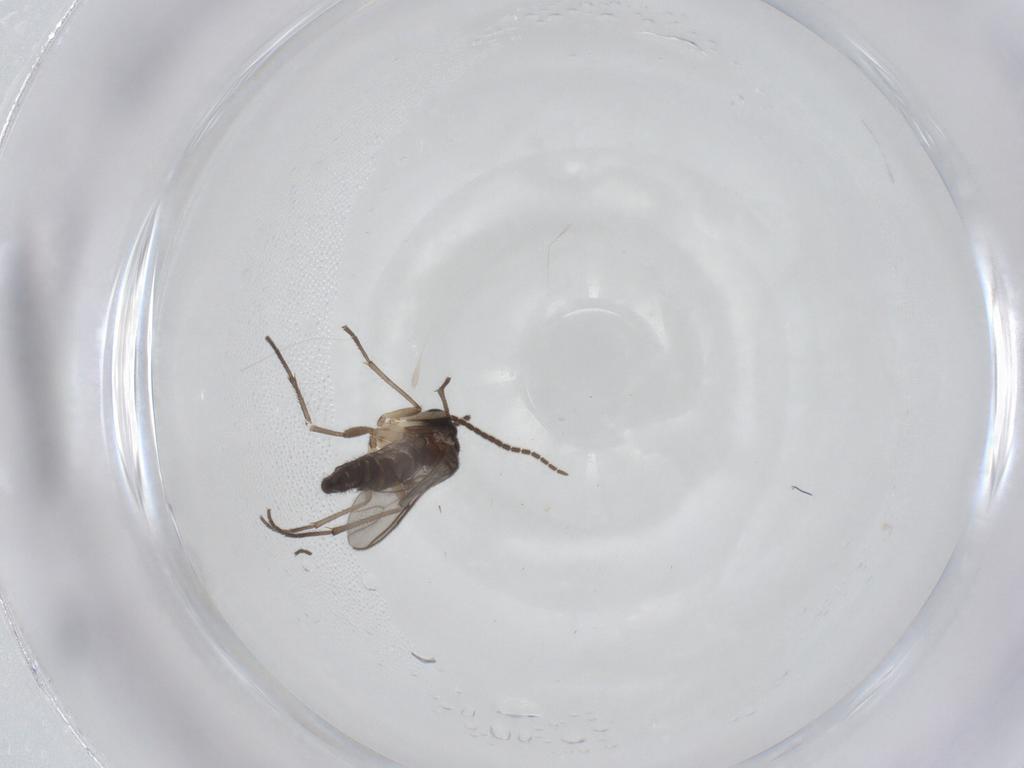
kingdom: Animalia
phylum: Arthropoda
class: Insecta
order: Diptera
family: Sciaridae
